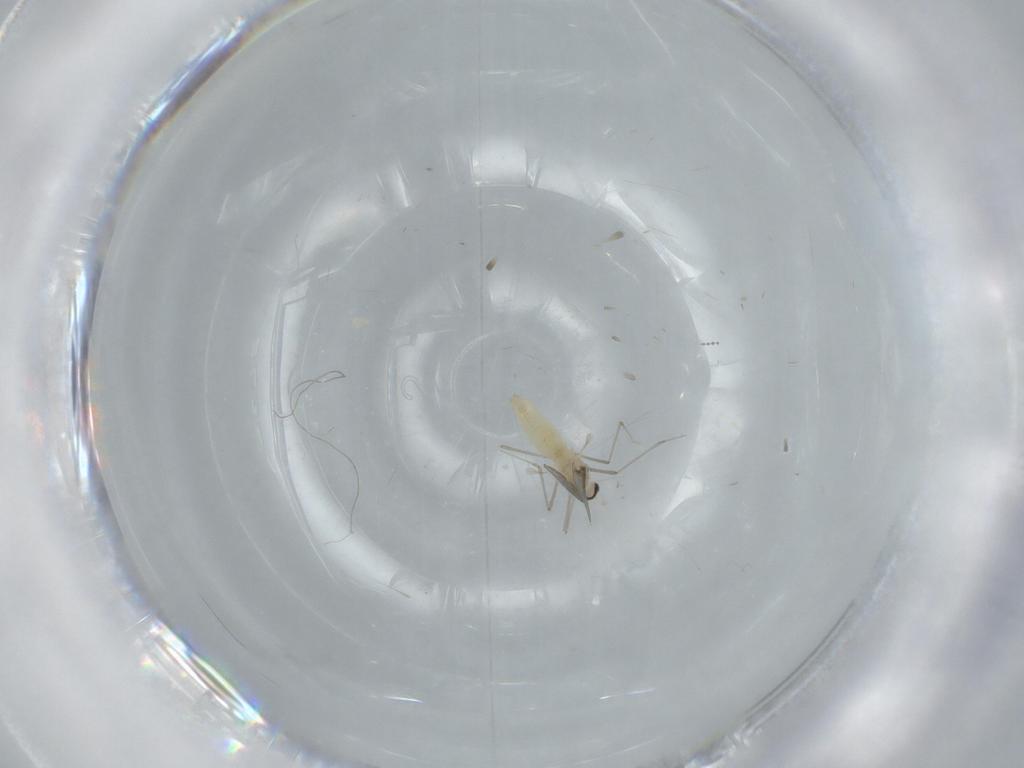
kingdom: Animalia
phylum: Arthropoda
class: Insecta
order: Diptera
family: Cecidomyiidae
